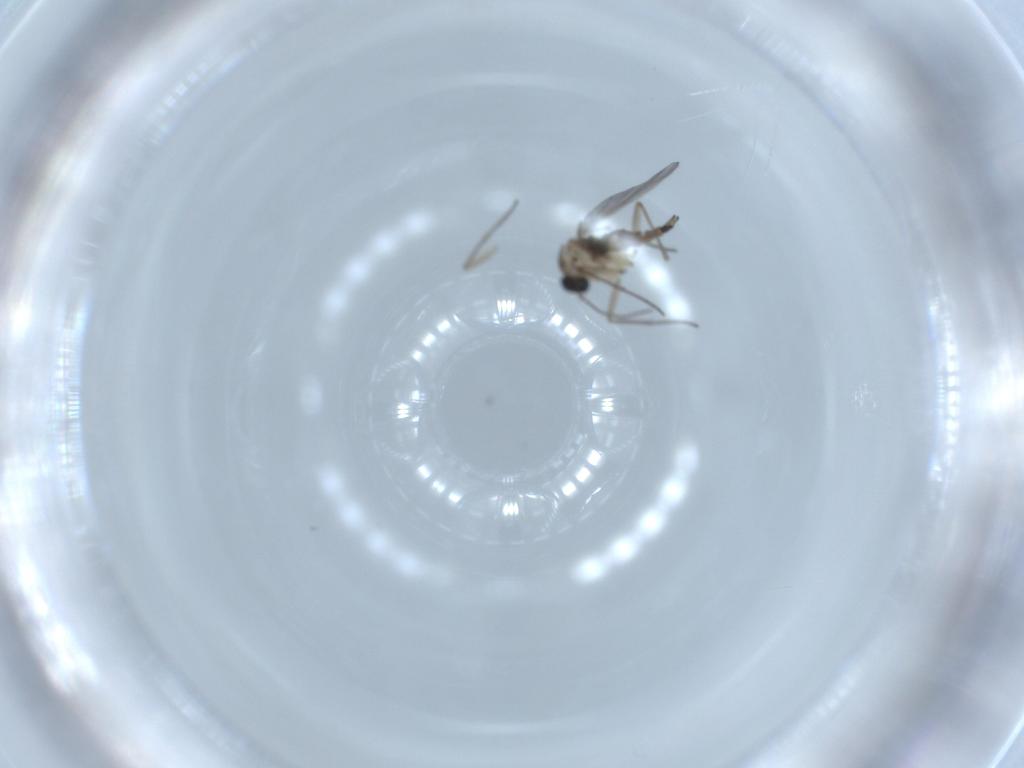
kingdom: Animalia
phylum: Arthropoda
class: Insecta
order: Diptera
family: Sciaridae
